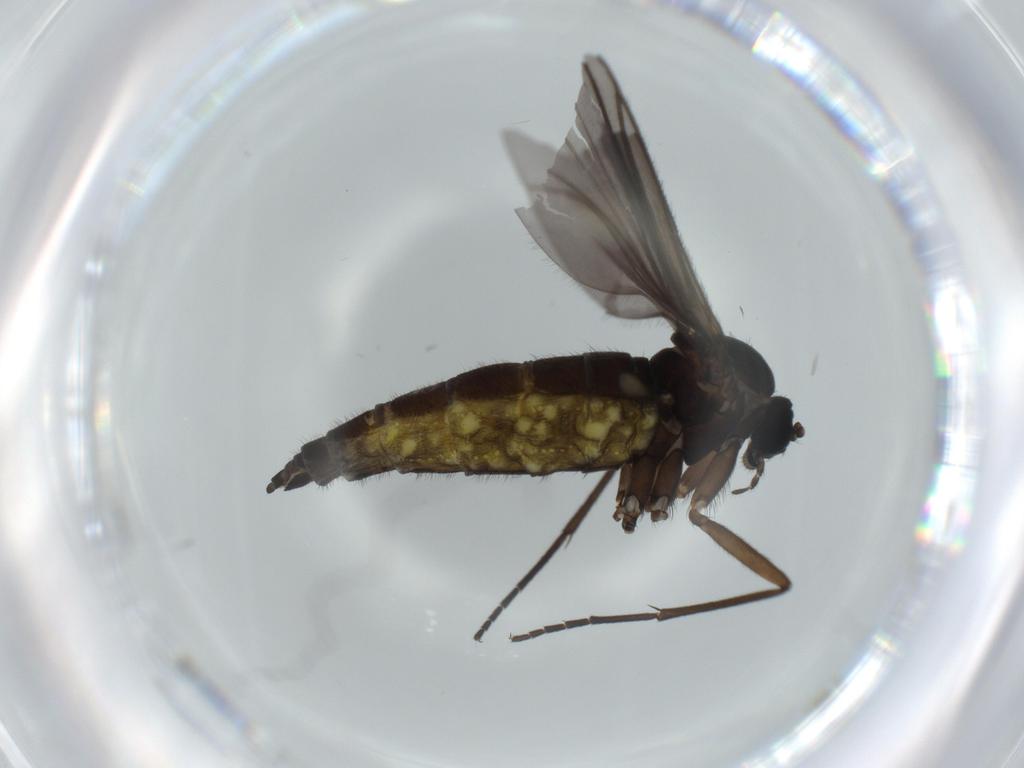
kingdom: Animalia
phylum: Arthropoda
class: Insecta
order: Diptera
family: Sciaridae
